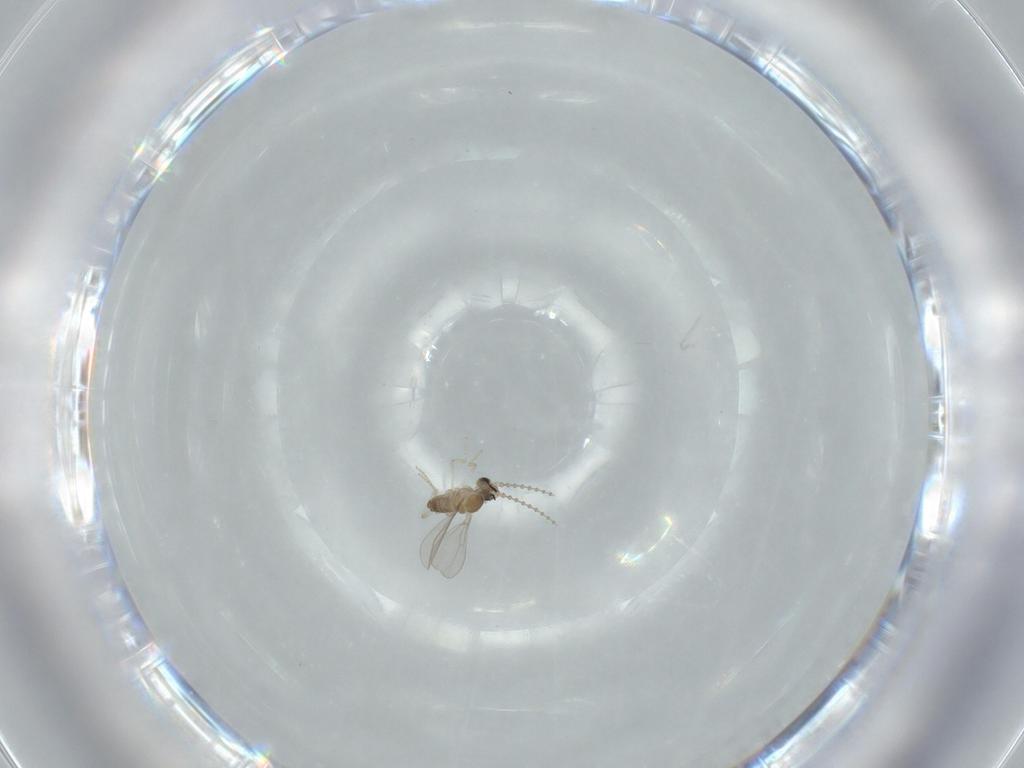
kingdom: Animalia
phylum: Arthropoda
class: Insecta
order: Diptera
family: Cecidomyiidae
